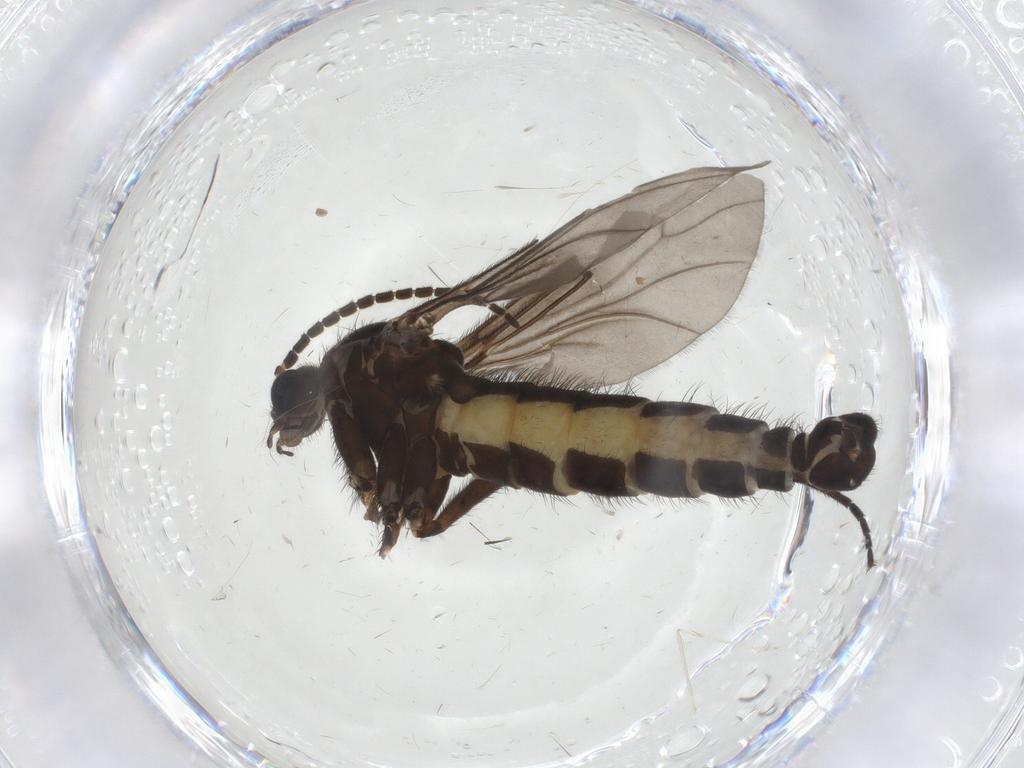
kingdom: Animalia
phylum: Arthropoda
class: Insecta
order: Diptera
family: Sciaridae
